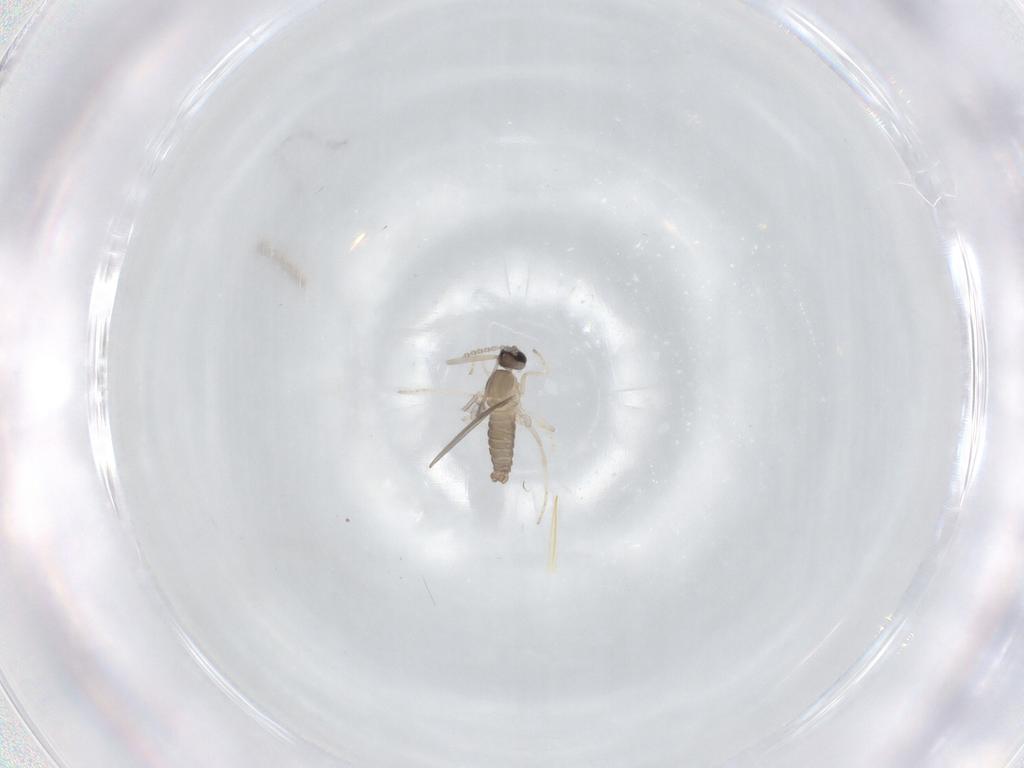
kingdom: Animalia
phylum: Arthropoda
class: Insecta
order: Diptera
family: Cecidomyiidae
